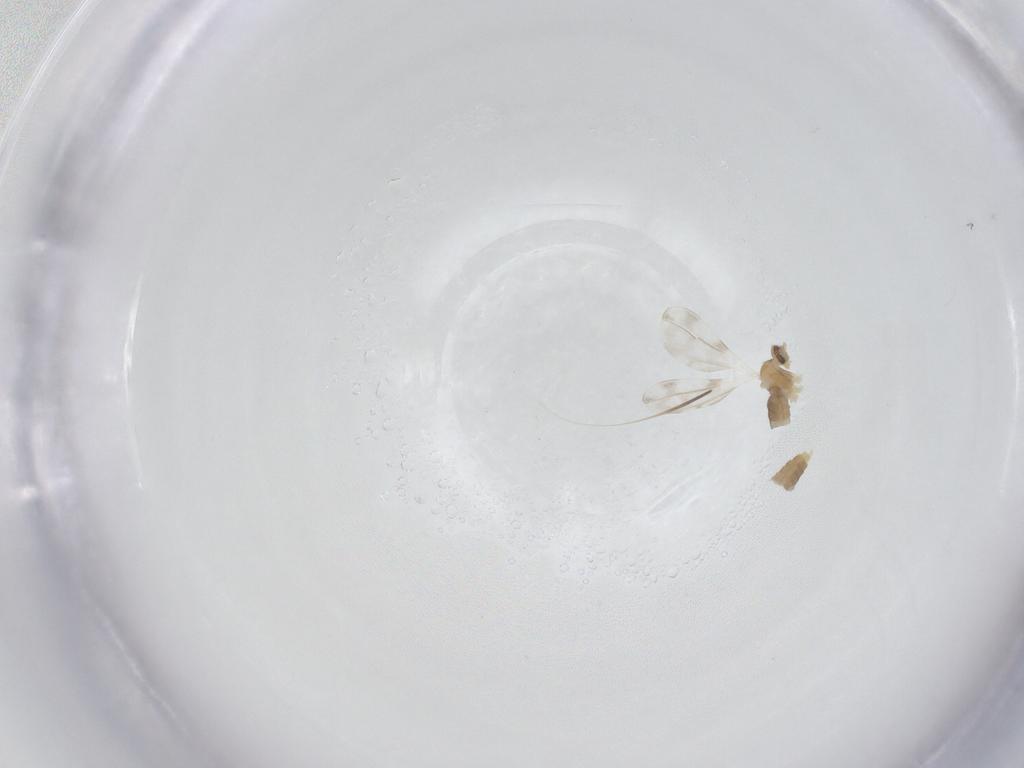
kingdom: Animalia
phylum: Arthropoda
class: Insecta
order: Diptera
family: Cecidomyiidae
